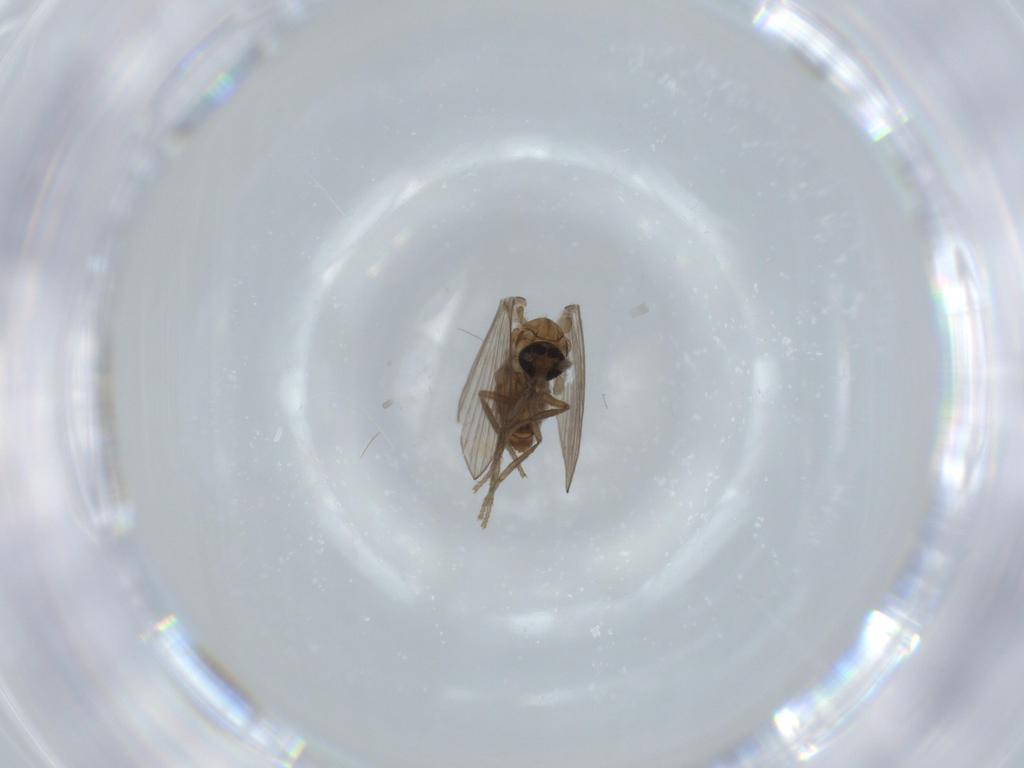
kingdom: Animalia
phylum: Arthropoda
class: Insecta
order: Diptera
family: Psychodidae
